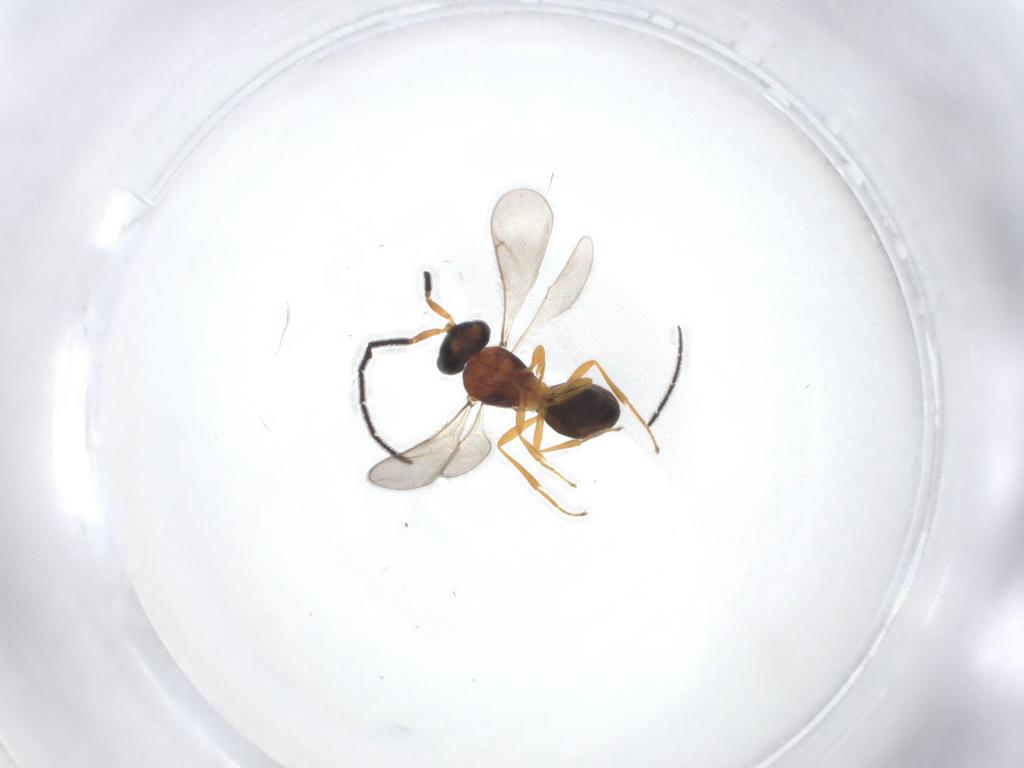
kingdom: Animalia
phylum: Arthropoda
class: Insecta
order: Hymenoptera
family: Scelionidae
